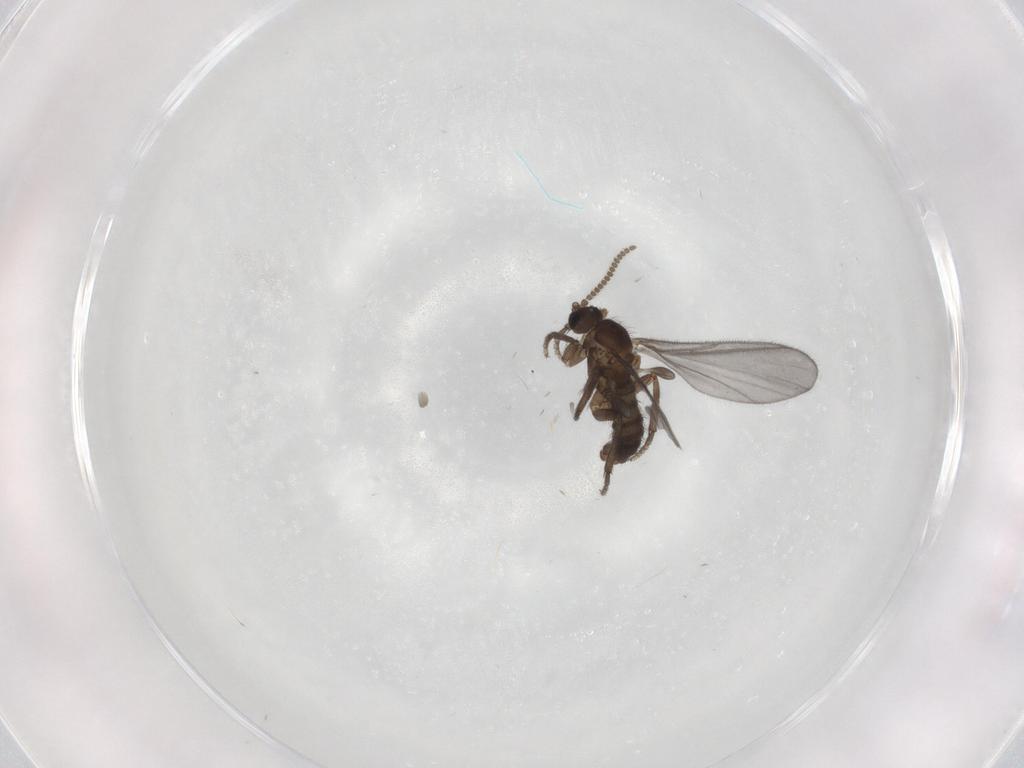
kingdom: Animalia
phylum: Arthropoda
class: Insecta
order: Diptera
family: Sciaridae
